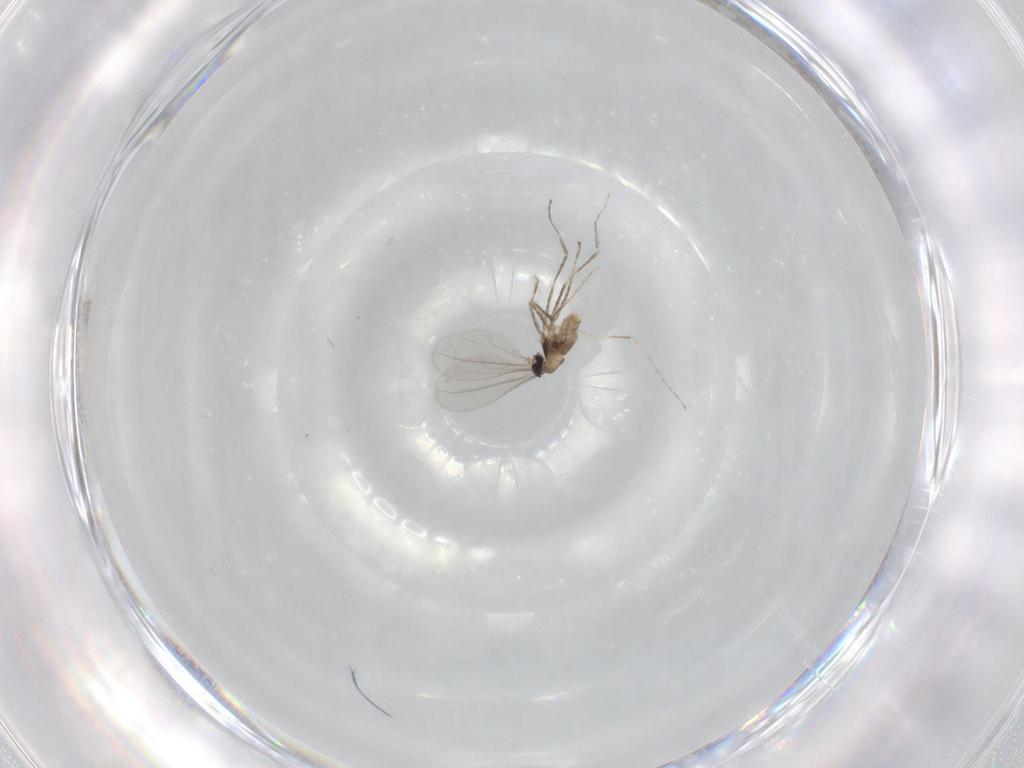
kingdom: Animalia
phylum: Arthropoda
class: Insecta
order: Diptera
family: Cecidomyiidae
